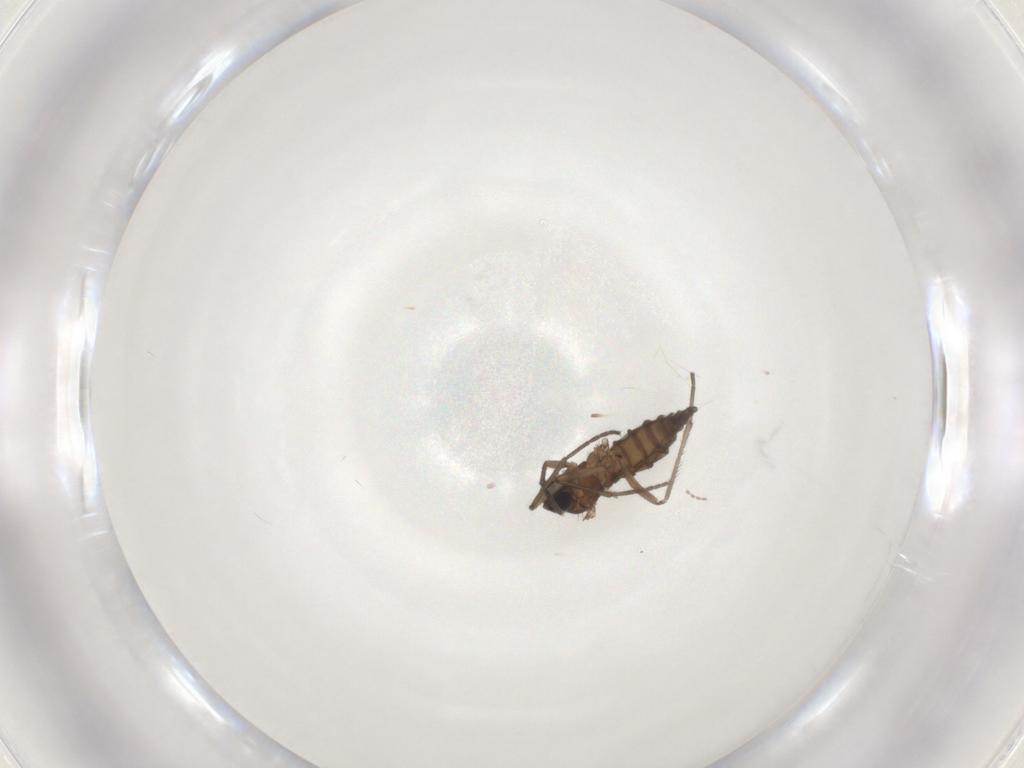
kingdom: Animalia
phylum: Arthropoda
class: Insecta
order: Diptera
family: Sciaridae
